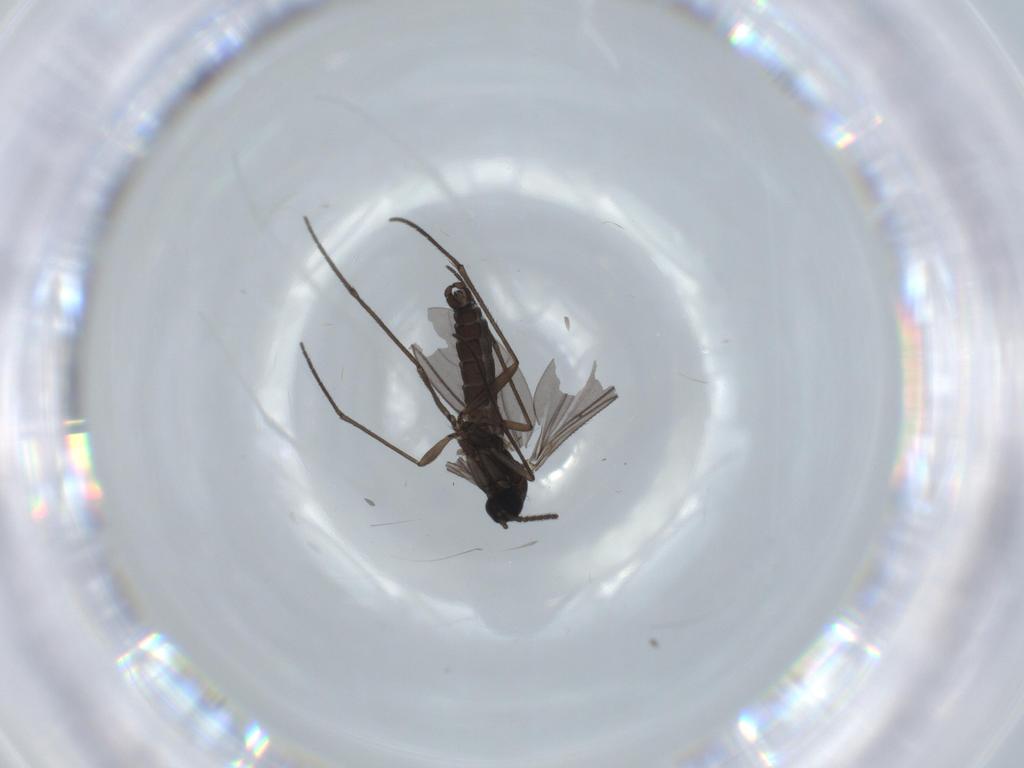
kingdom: Animalia
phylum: Arthropoda
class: Insecta
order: Diptera
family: Sciaridae
